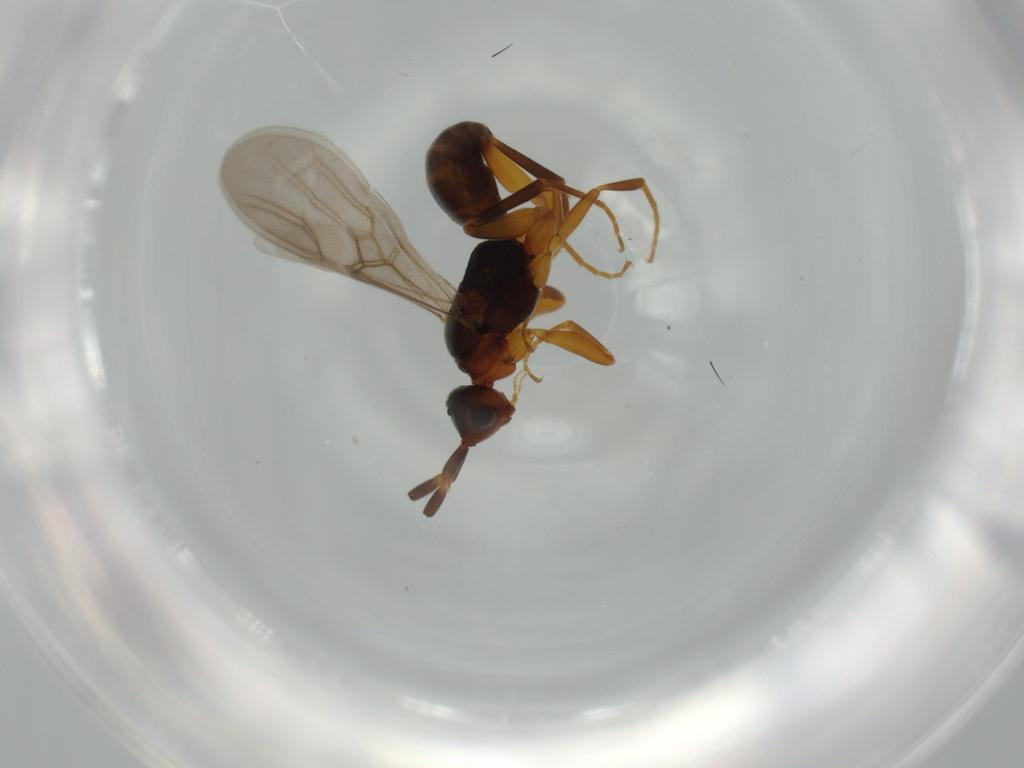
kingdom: Animalia
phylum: Arthropoda
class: Insecta
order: Hymenoptera
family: Embolemidae
